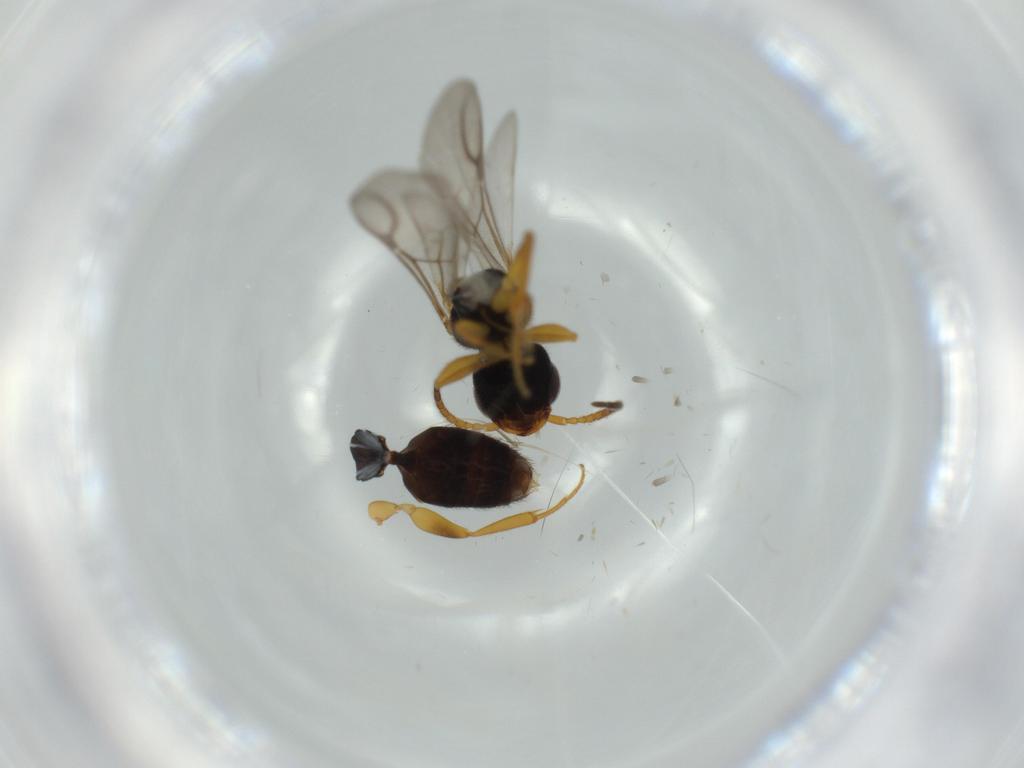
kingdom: Animalia
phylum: Arthropoda
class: Insecta
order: Hymenoptera
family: Bethylidae
